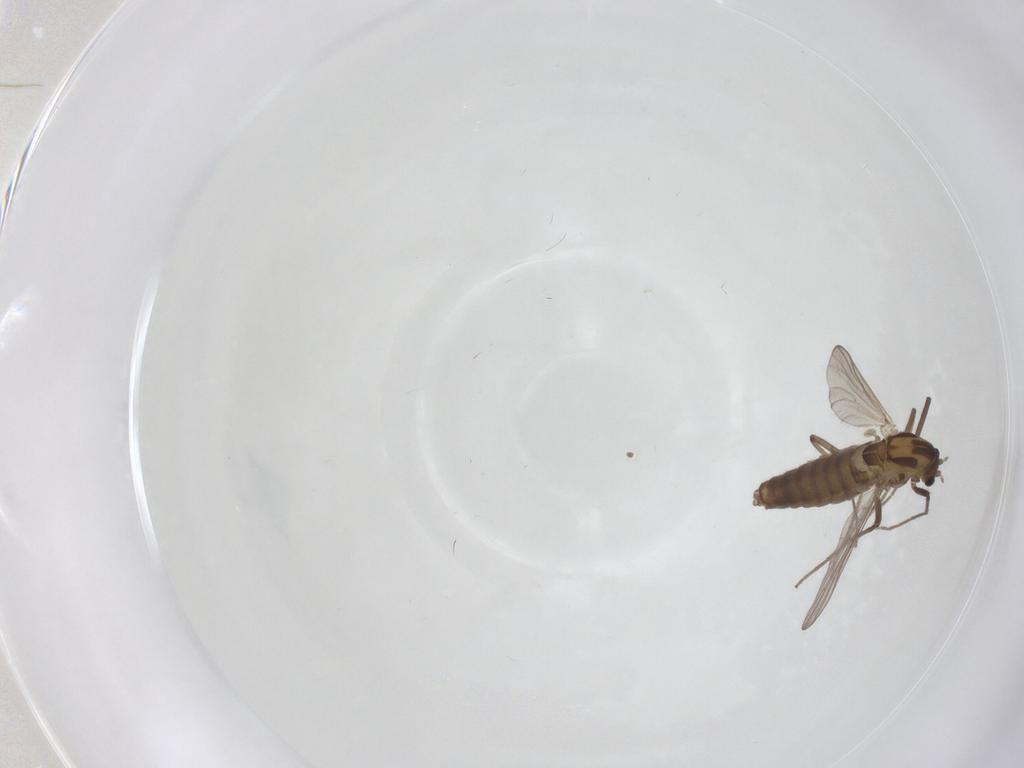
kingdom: Animalia
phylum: Arthropoda
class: Insecta
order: Diptera
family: Chironomidae
